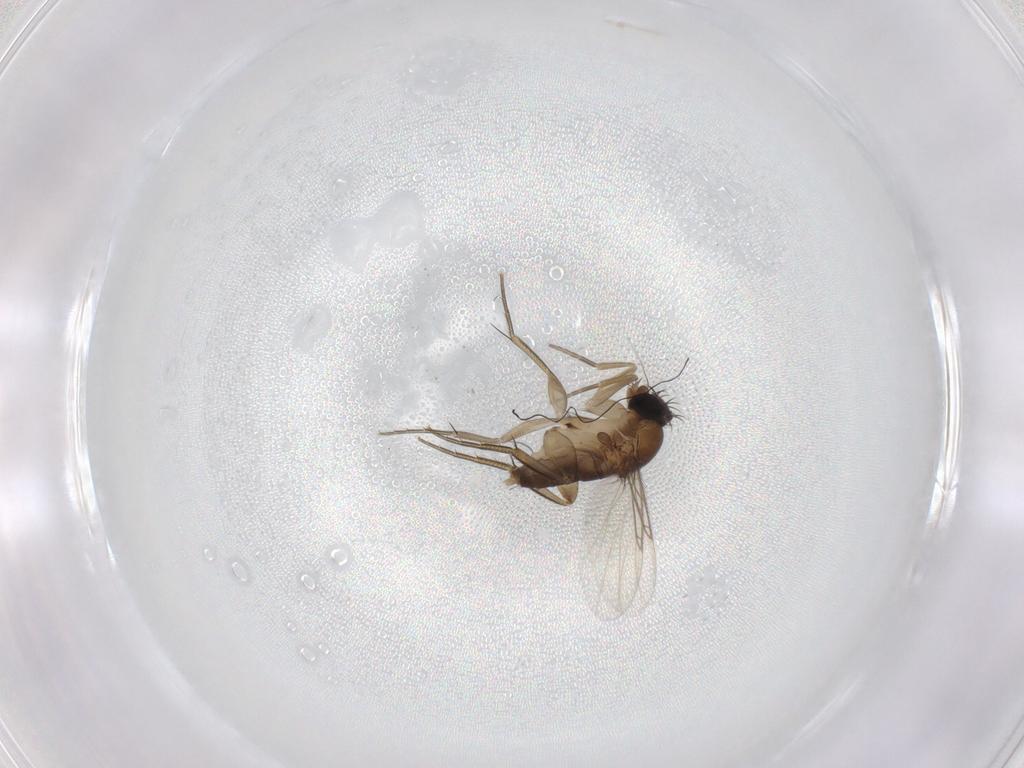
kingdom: Animalia
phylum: Arthropoda
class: Insecta
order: Diptera
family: Phoridae
